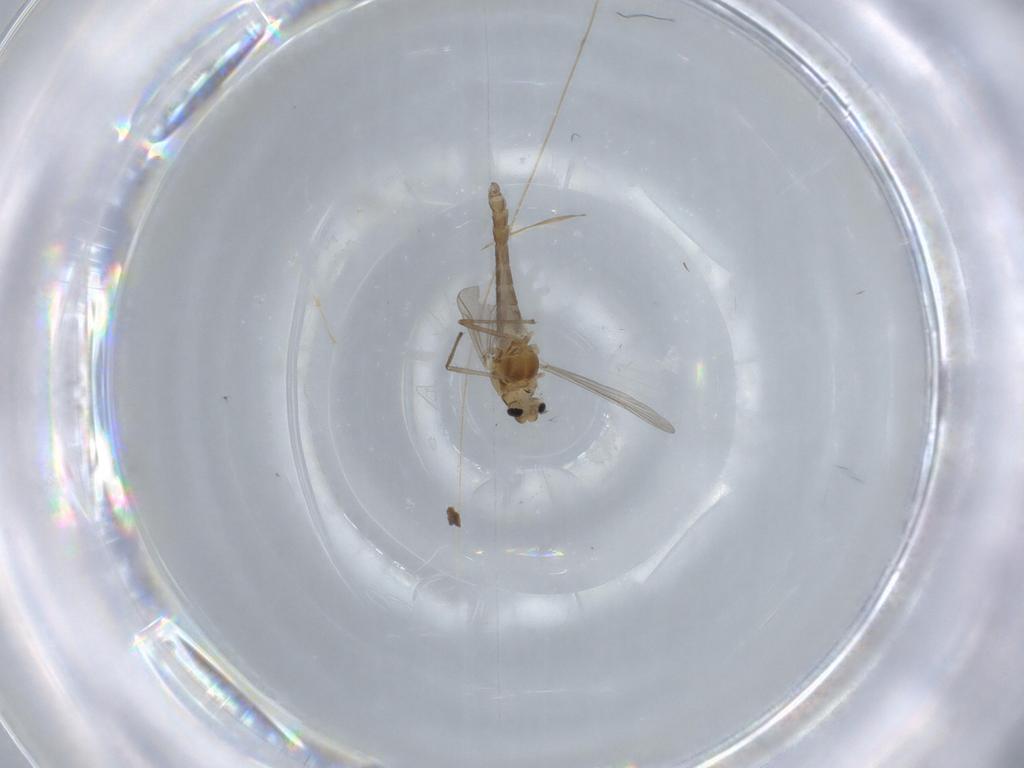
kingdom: Animalia
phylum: Arthropoda
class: Insecta
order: Diptera
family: Chironomidae
